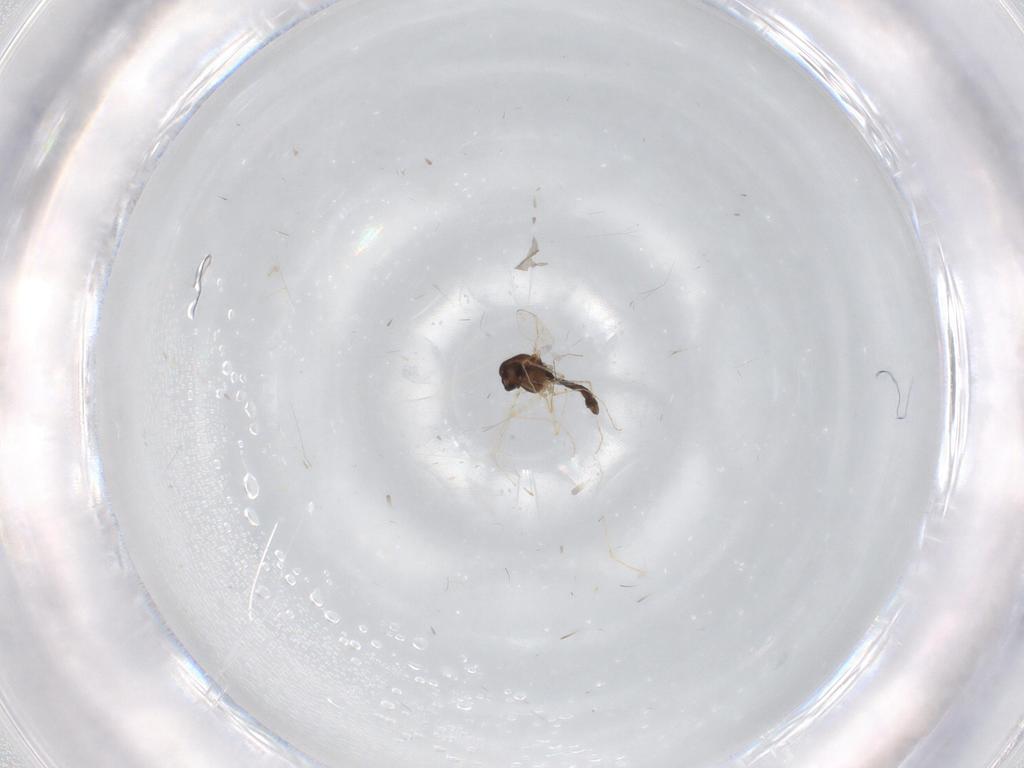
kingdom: Animalia
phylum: Arthropoda
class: Insecta
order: Diptera
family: Chironomidae
